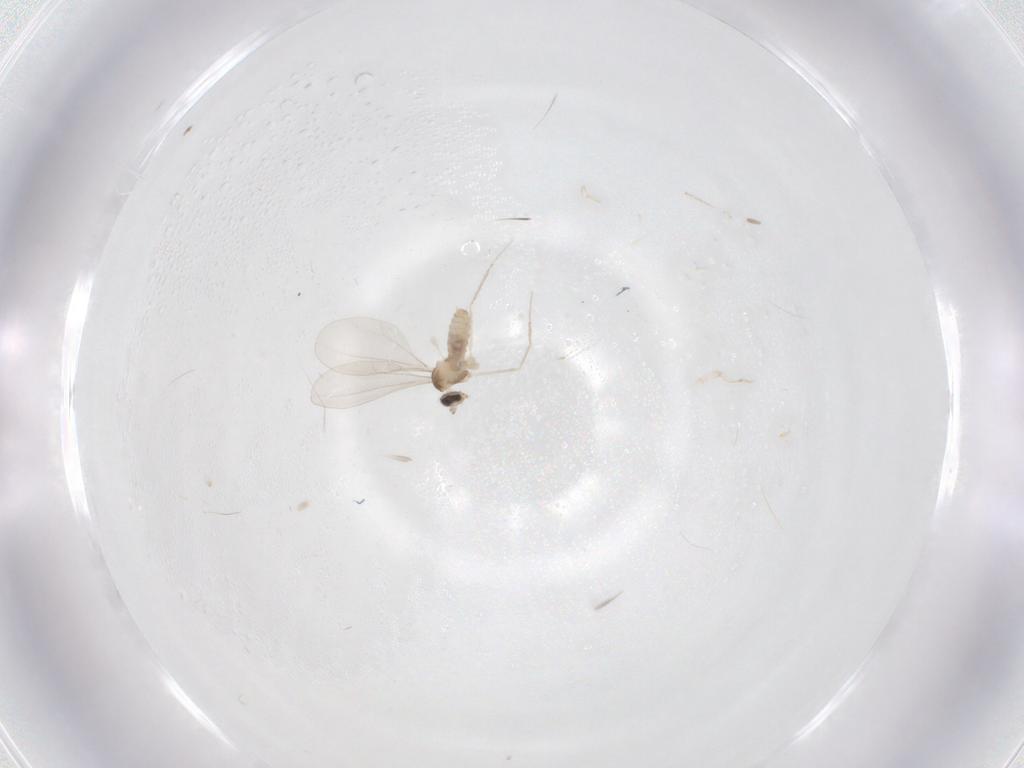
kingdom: Animalia
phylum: Arthropoda
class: Insecta
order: Diptera
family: Cecidomyiidae
